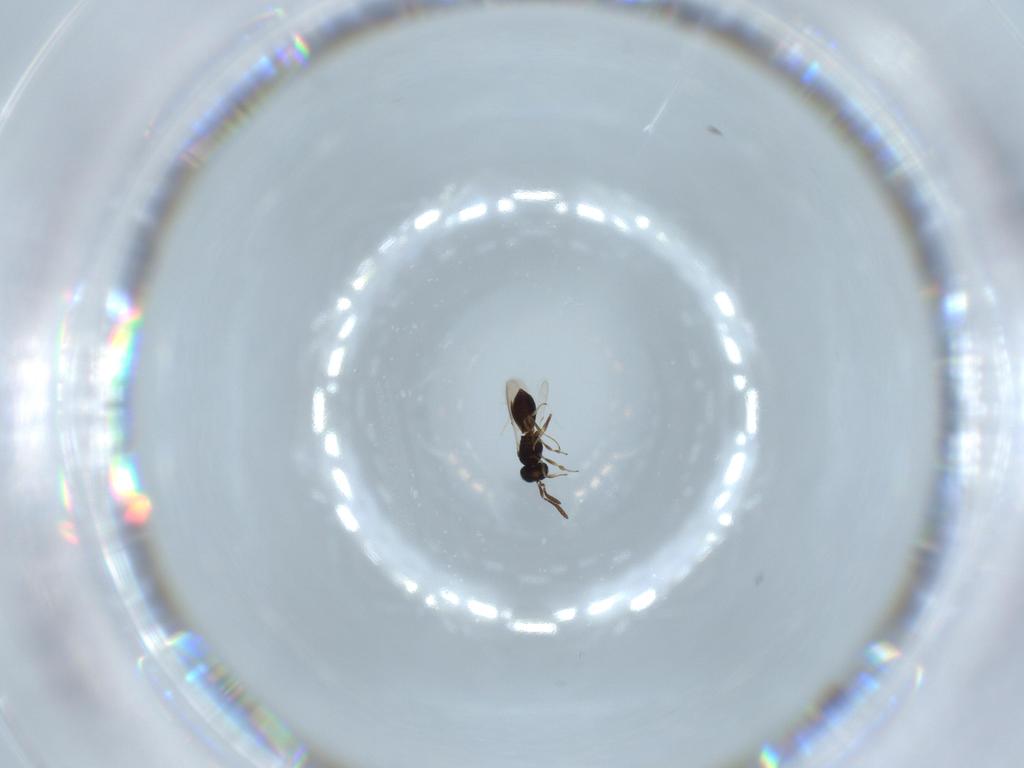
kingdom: Animalia
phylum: Arthropoda
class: Insecta
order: Hymenoptera
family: Scelionidae
